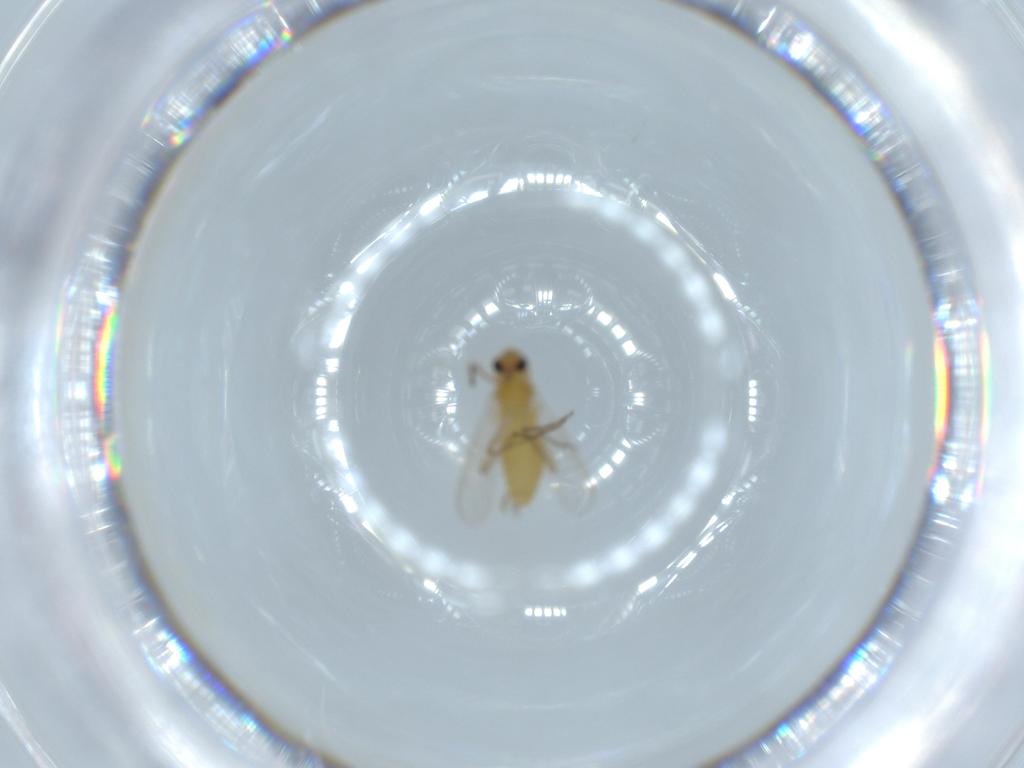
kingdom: Animalia
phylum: Arthropoda
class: Insecta
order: Diptera
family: Chironomidae
